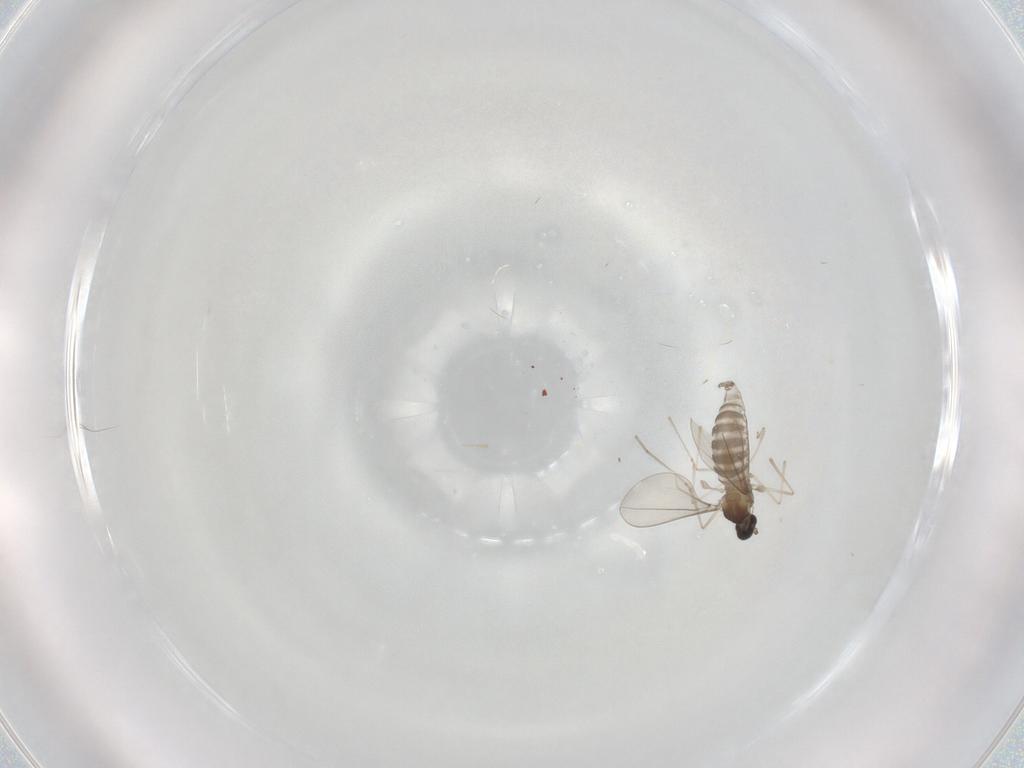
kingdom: Animalia
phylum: Arthropoda
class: Insecta
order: Diptera
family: Cecidomyiidae
